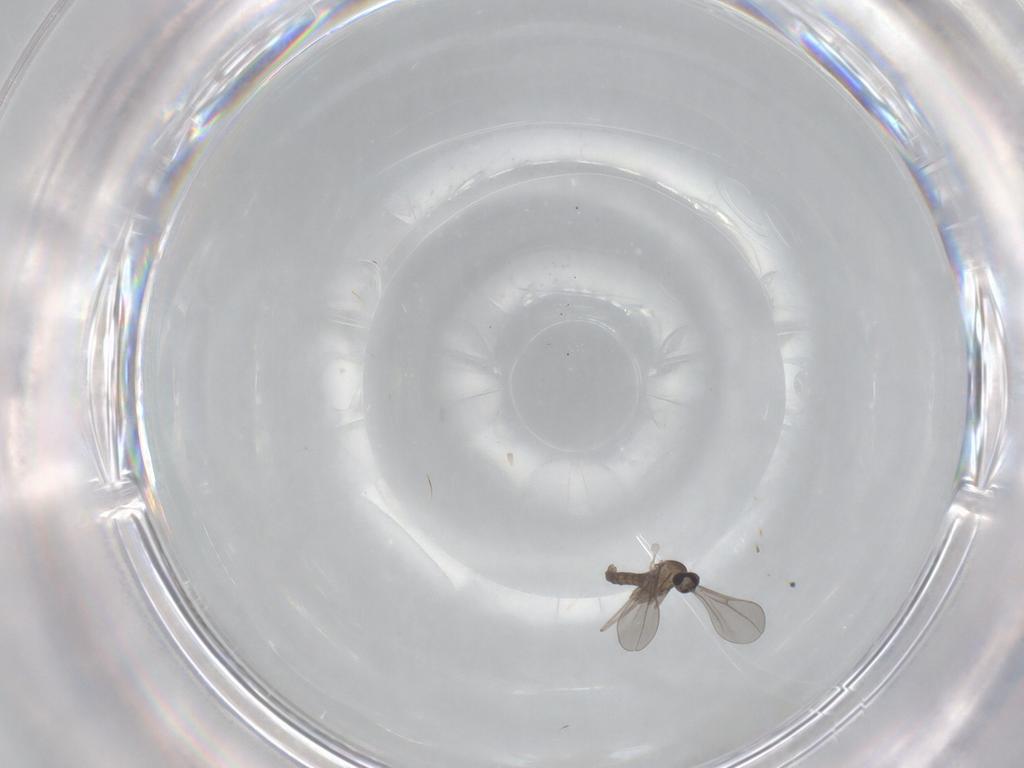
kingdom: Animalia
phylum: Arthropoda
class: Insecta
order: Diptera
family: Cecidomyiidae
